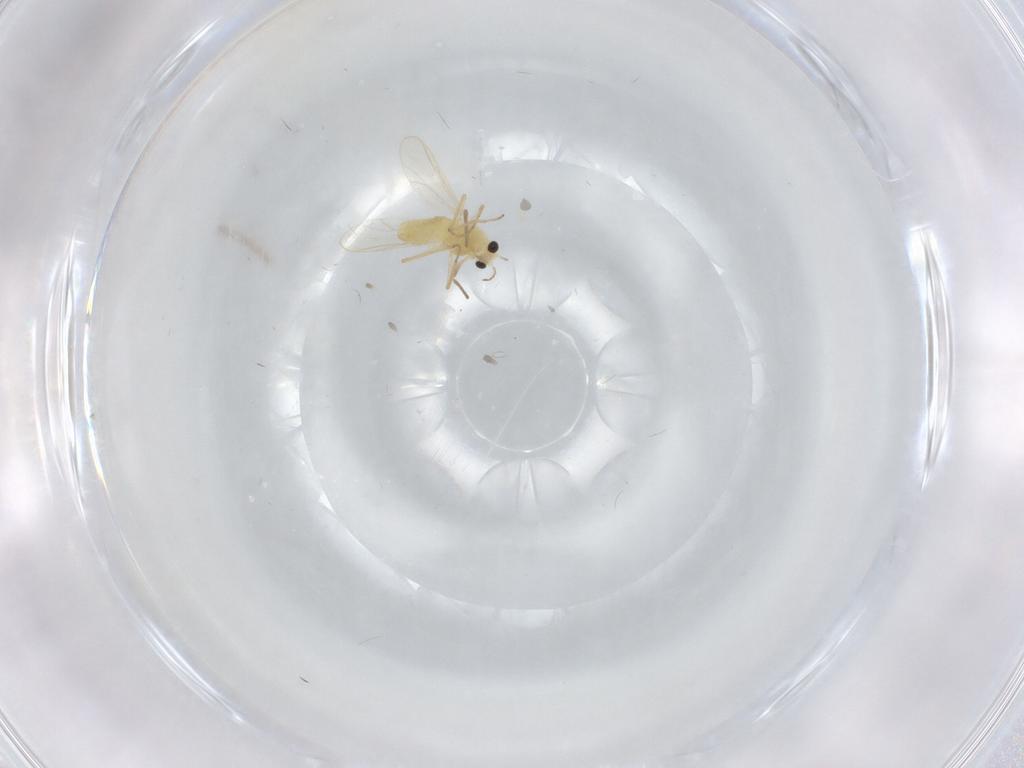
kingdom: Animalia
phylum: Arthropoda
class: Insecta
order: Diptera
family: Chironomidae
